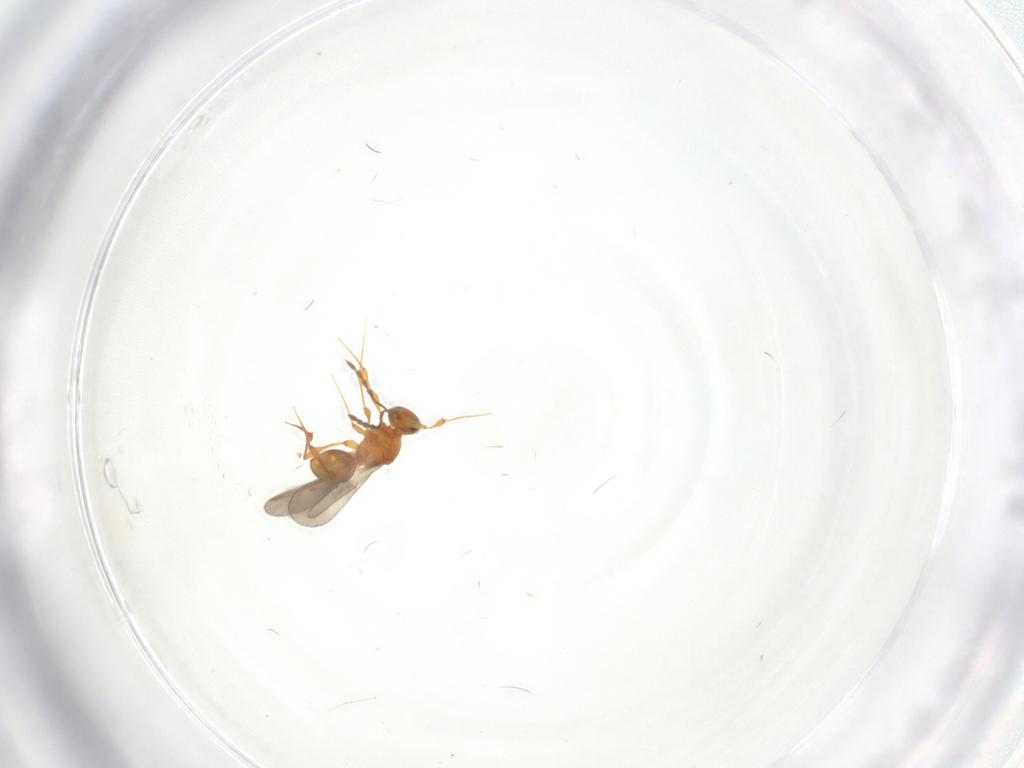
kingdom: Animalia
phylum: Arthropoda
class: Insecta
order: Hymenoptera
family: Platygastridae
